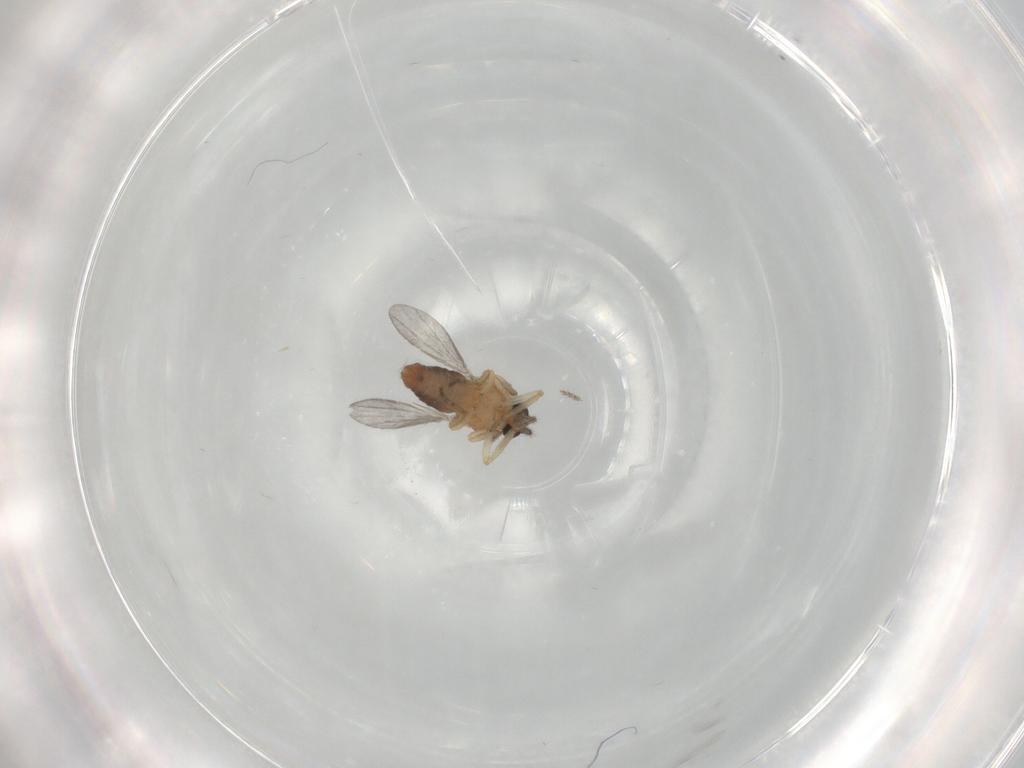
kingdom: Animalia
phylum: Arthropoda
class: Insecta
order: Diptera
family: Ceratopogonidae
